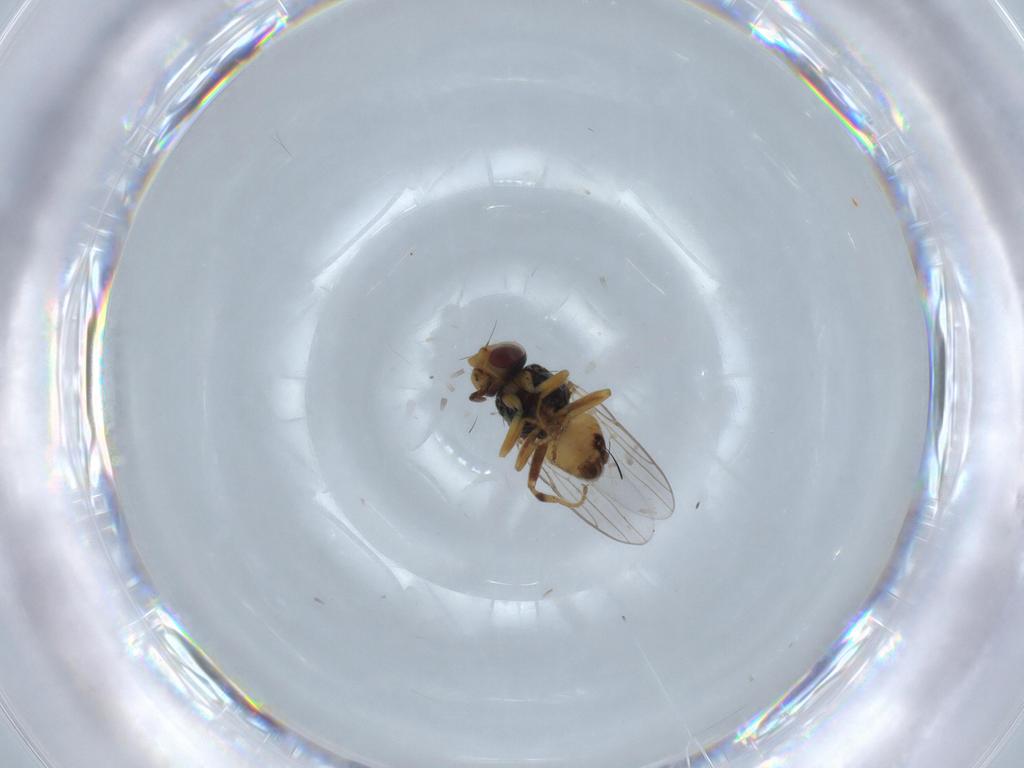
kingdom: Animalia
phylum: Arthropoda
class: Insecta
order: Diptera
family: Chloropidae
